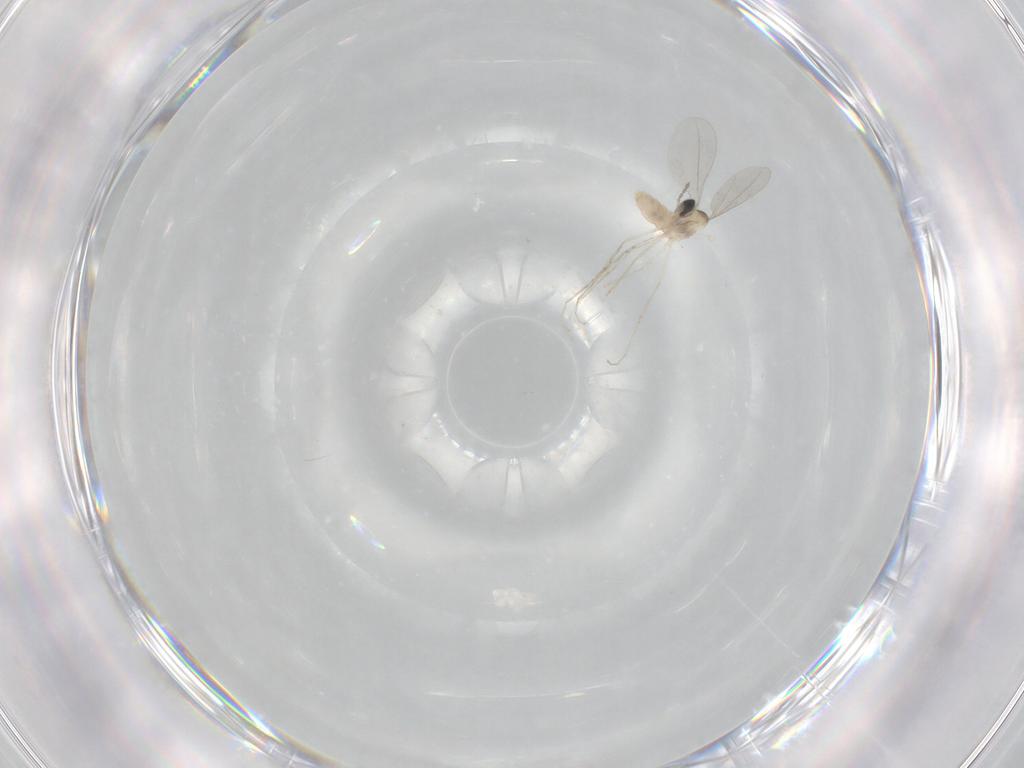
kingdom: Animalia
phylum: Arthropoda
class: Insecta
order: Diptera
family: Cecidomyiidae
